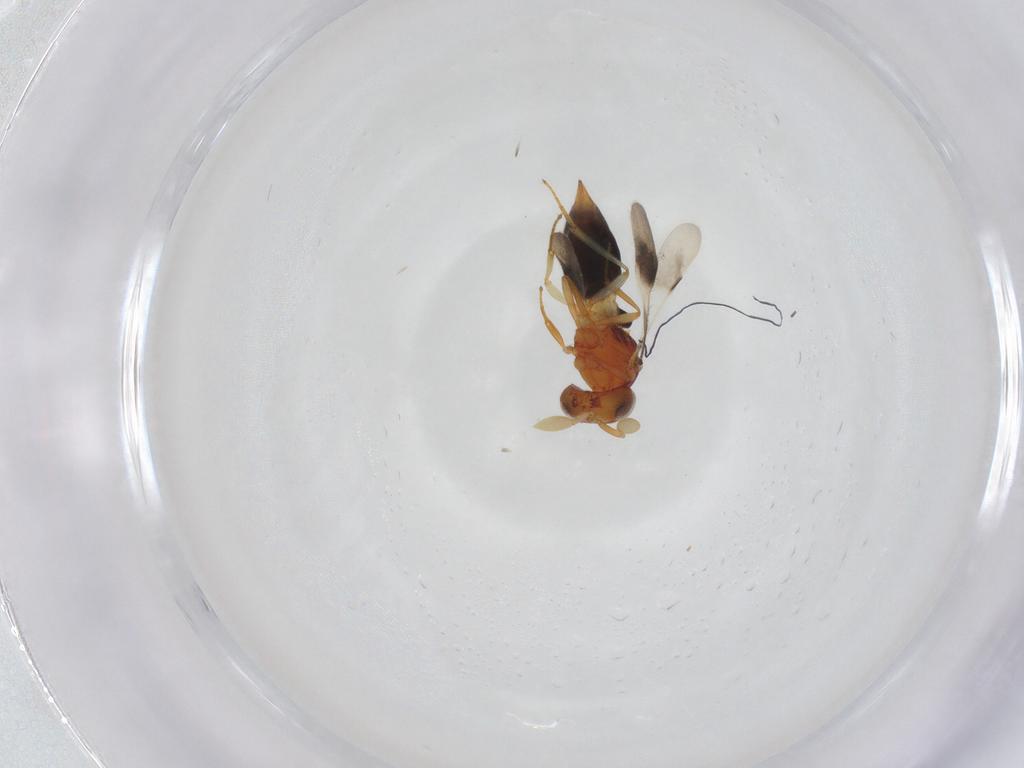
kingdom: Animalia
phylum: Arthropoda
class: Insecta
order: Hymenoptera
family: Scelionidae
